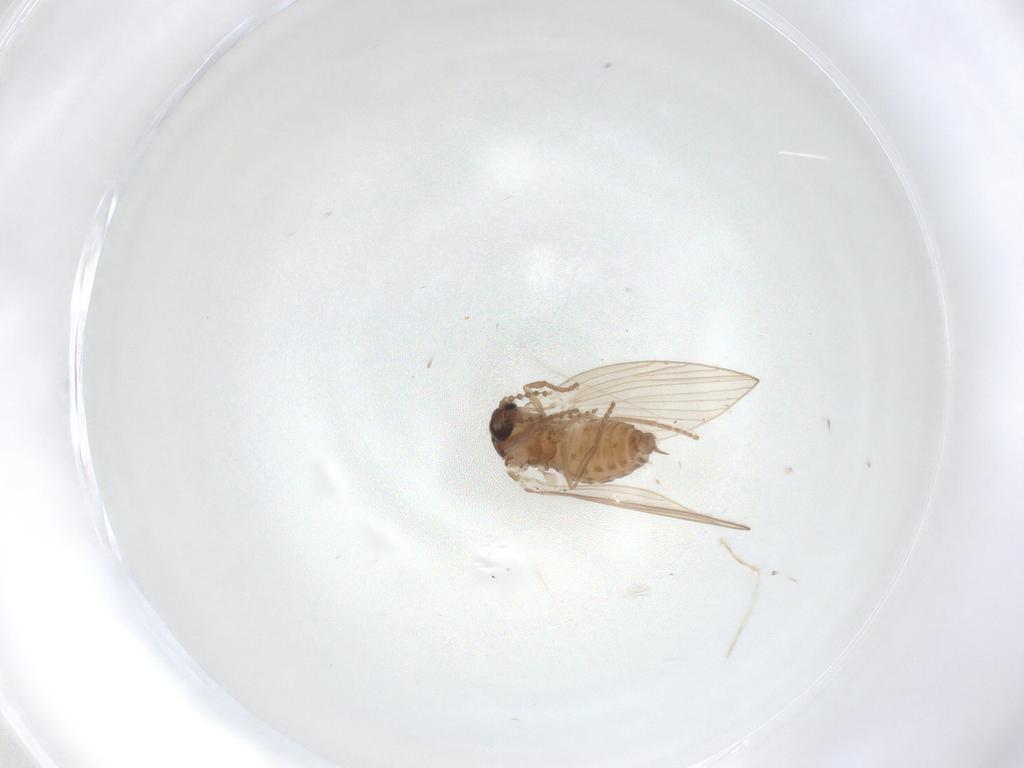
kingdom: Animalia
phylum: Arthropoda
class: Insecta
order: Diptera
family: Psychodidae
